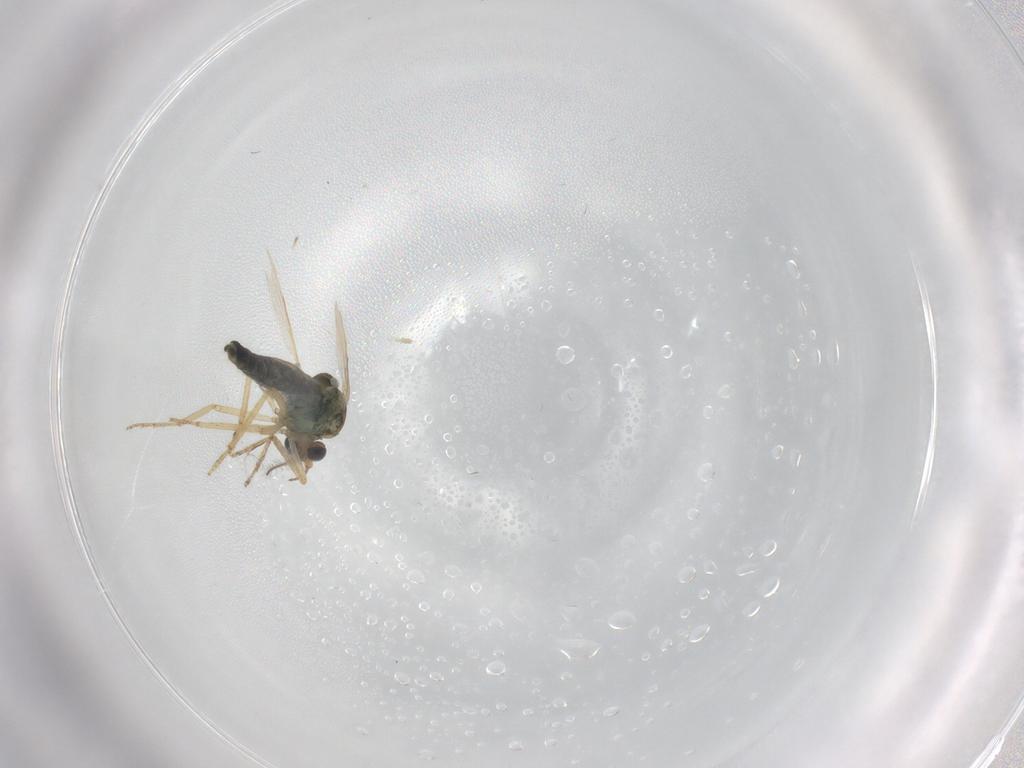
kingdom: Animalia
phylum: Arthropoda
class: Insecta
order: Diptera
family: Ceratopogonidae
